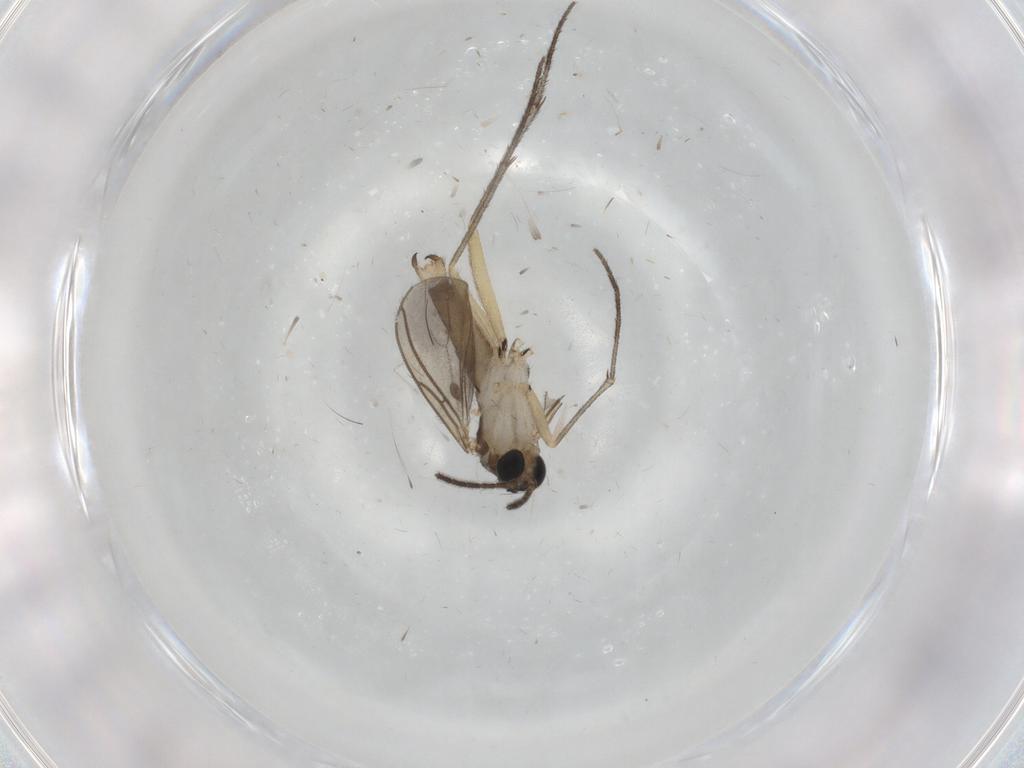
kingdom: Animalia
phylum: Arthropoda
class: Insecta
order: Diptera
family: Sciaridae
